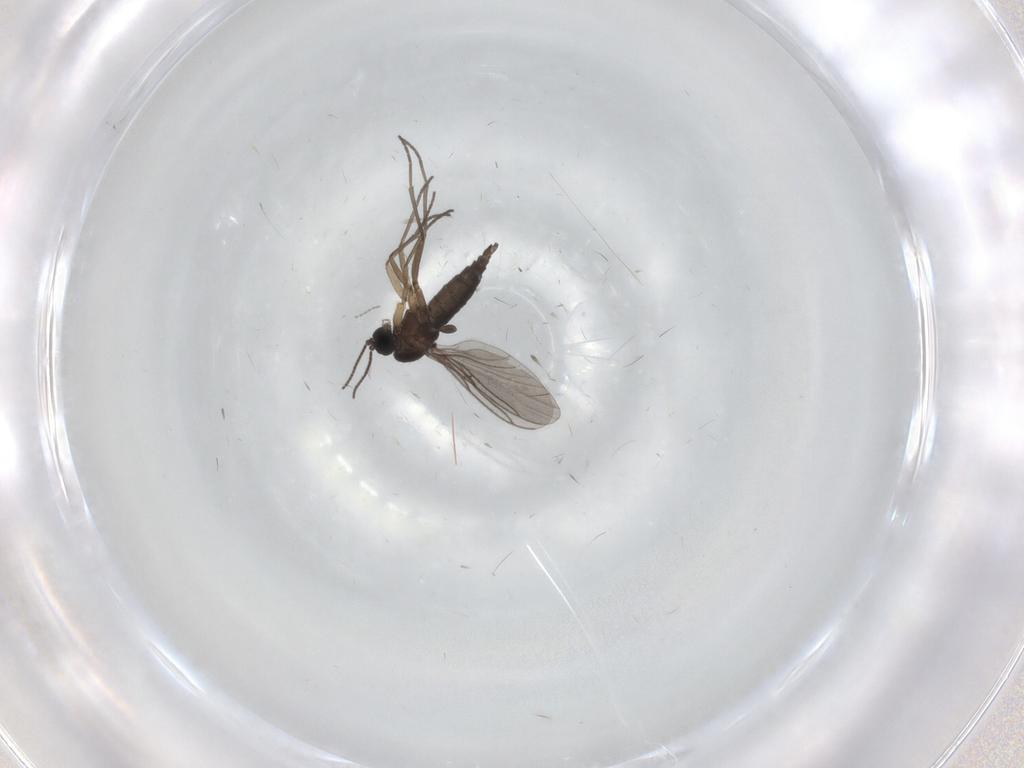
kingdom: Animalia
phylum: Arthropoda
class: Insecta
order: Diptera
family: Sciaridae
